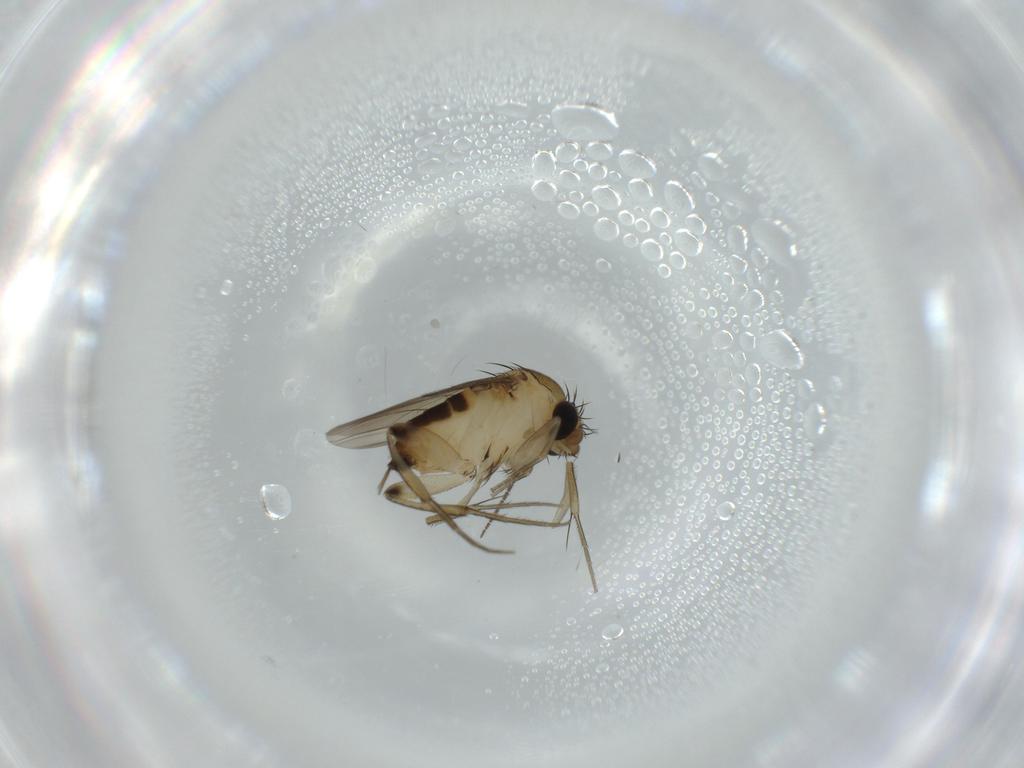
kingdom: Animalia
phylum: Arthropoda
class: Insecta
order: Diptera
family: Phoridae
